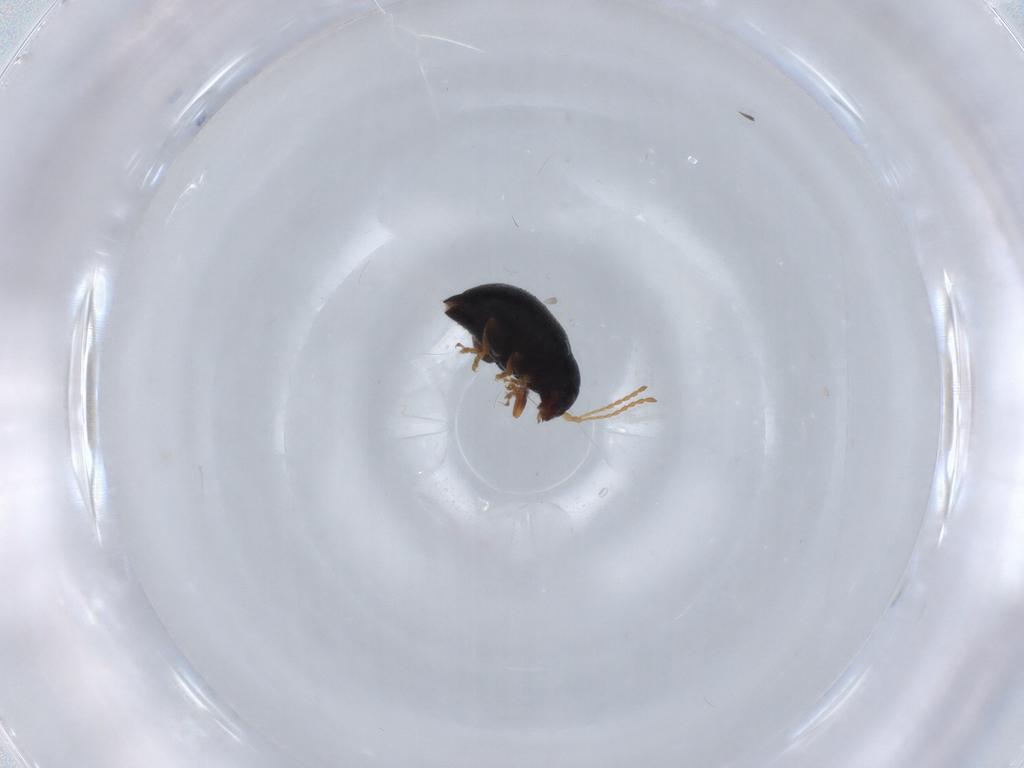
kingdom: Animalia
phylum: Arthropoda
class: Insecta
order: Coleoptera
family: Chrysomelidae
